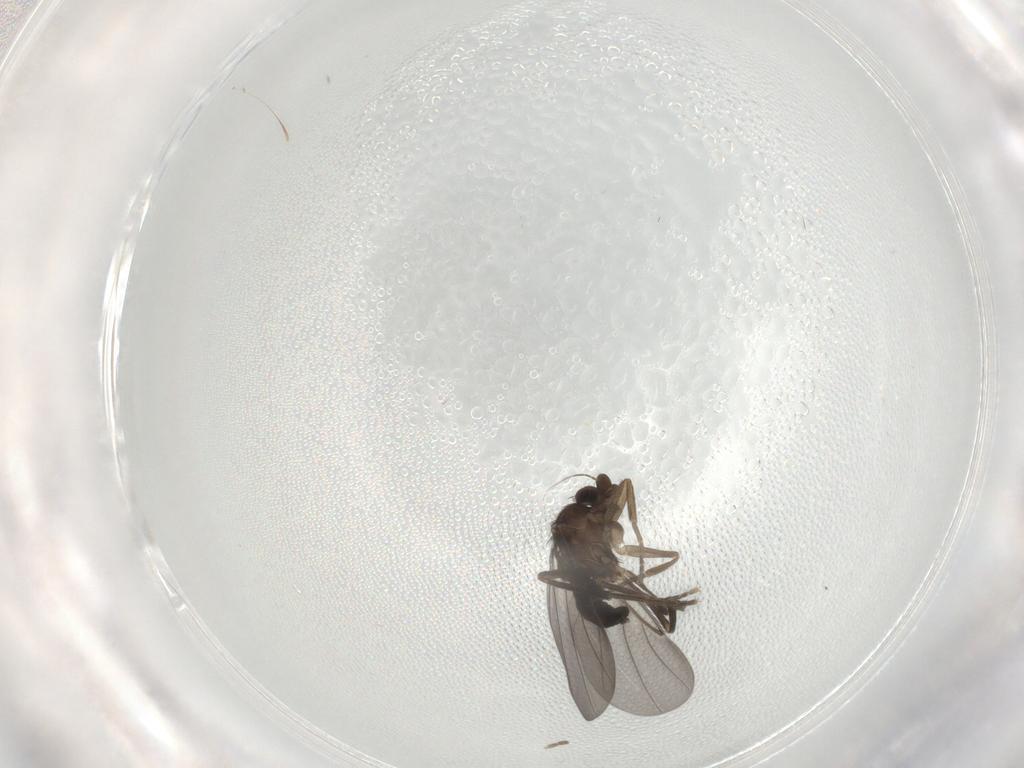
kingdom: Animalia
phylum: Arthropoda
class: Insecta
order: Diptera
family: Phoridae
